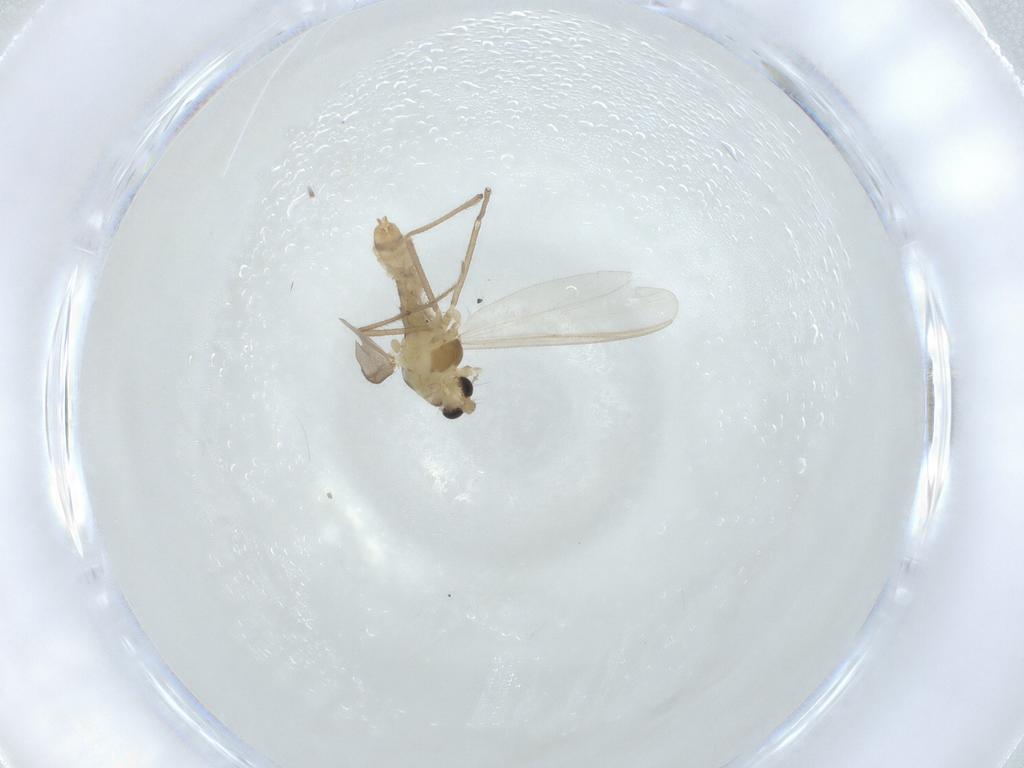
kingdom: Animalia
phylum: Arthropoda
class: Insecta
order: Diptera
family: Chironomidae
